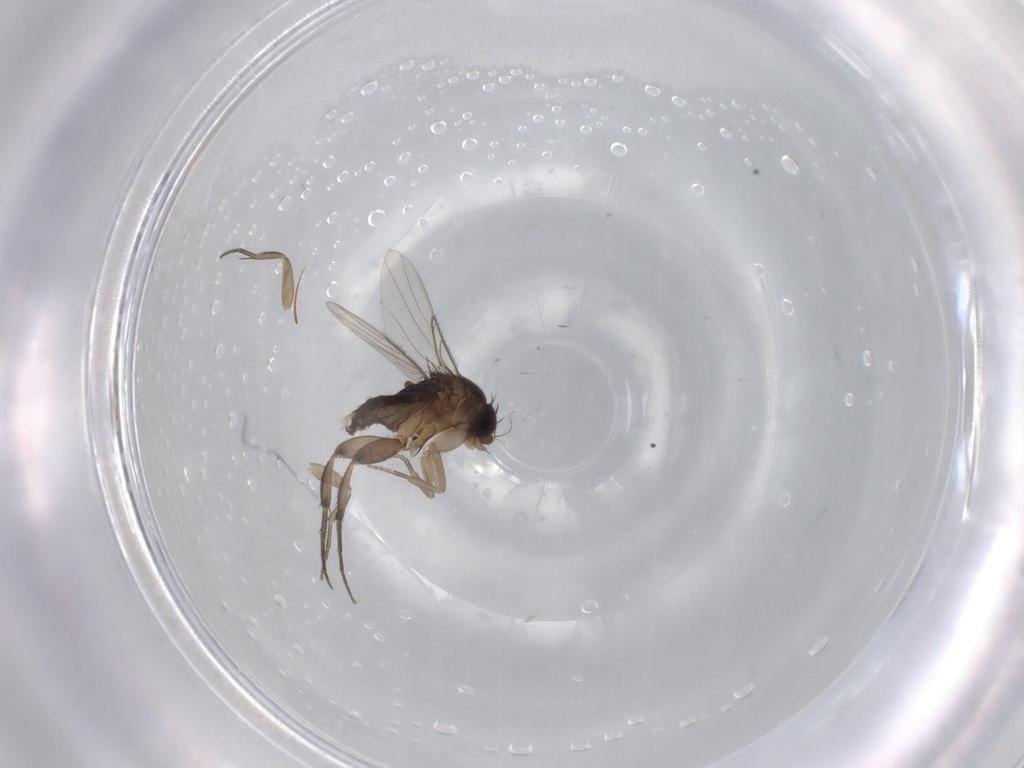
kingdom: Animalia
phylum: Arthropoda
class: Insecta
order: Diptera
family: Phoridae
